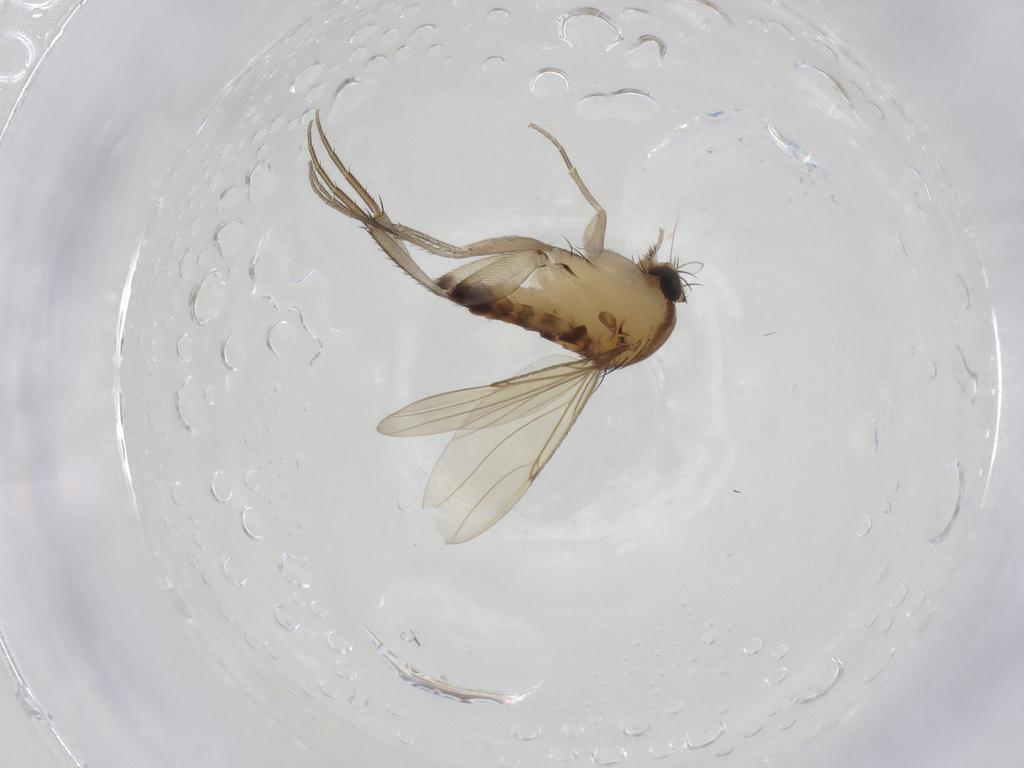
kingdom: Animalia
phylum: Arthropoda
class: Insecta
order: Diptera
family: Phoridae
